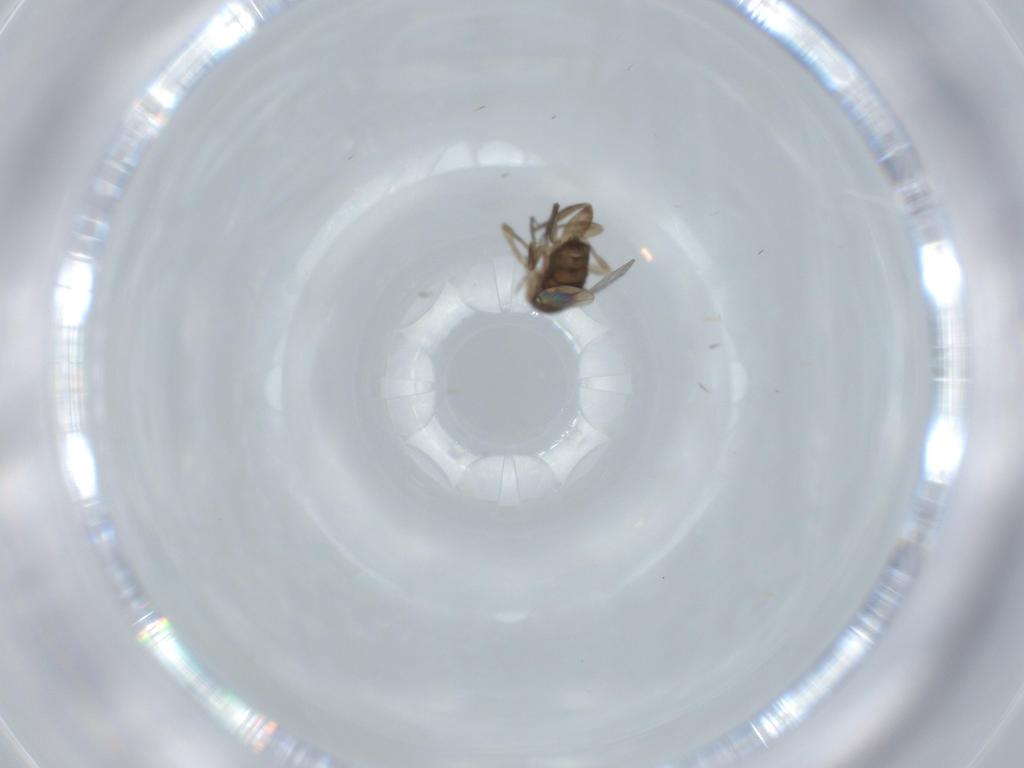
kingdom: Animalia
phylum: Arthropoda
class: Insecta
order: Diptera
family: Phoridae
